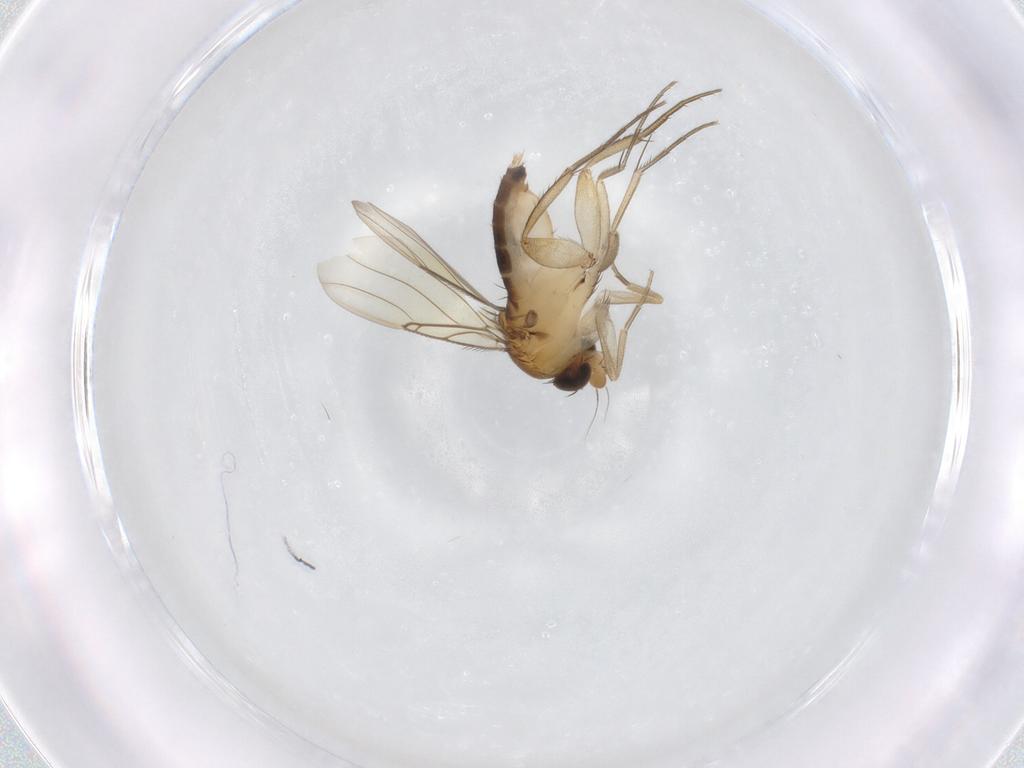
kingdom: Animalia
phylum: Arthropoda
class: Insecta
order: Diptera
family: Phoridae
